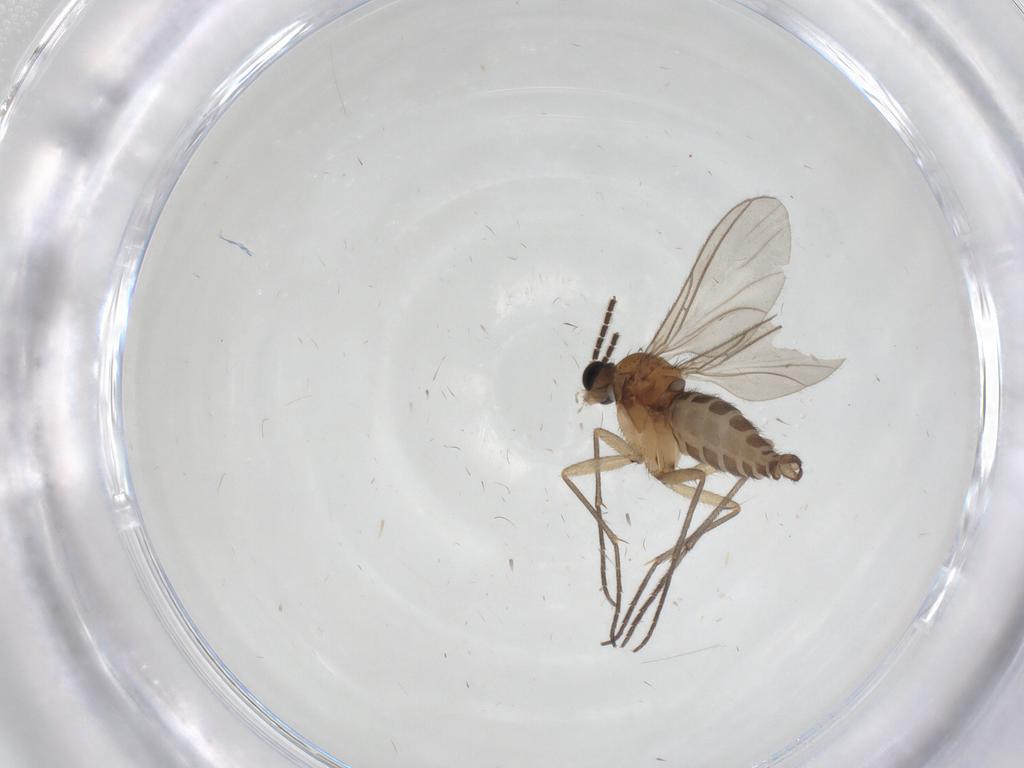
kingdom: Animalia
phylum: Arthropoda
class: Insecta
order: Diptera
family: Sciaridae
